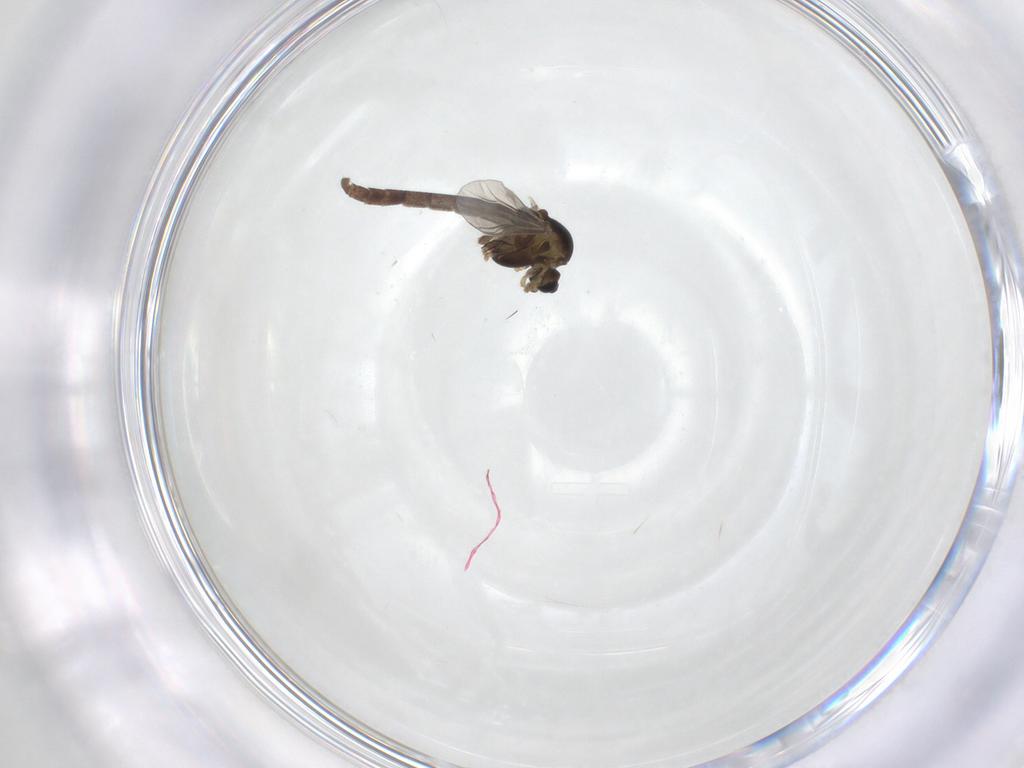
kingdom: Animalia
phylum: Arthropoda
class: Insecta
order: Diptera
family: Chironomidae
